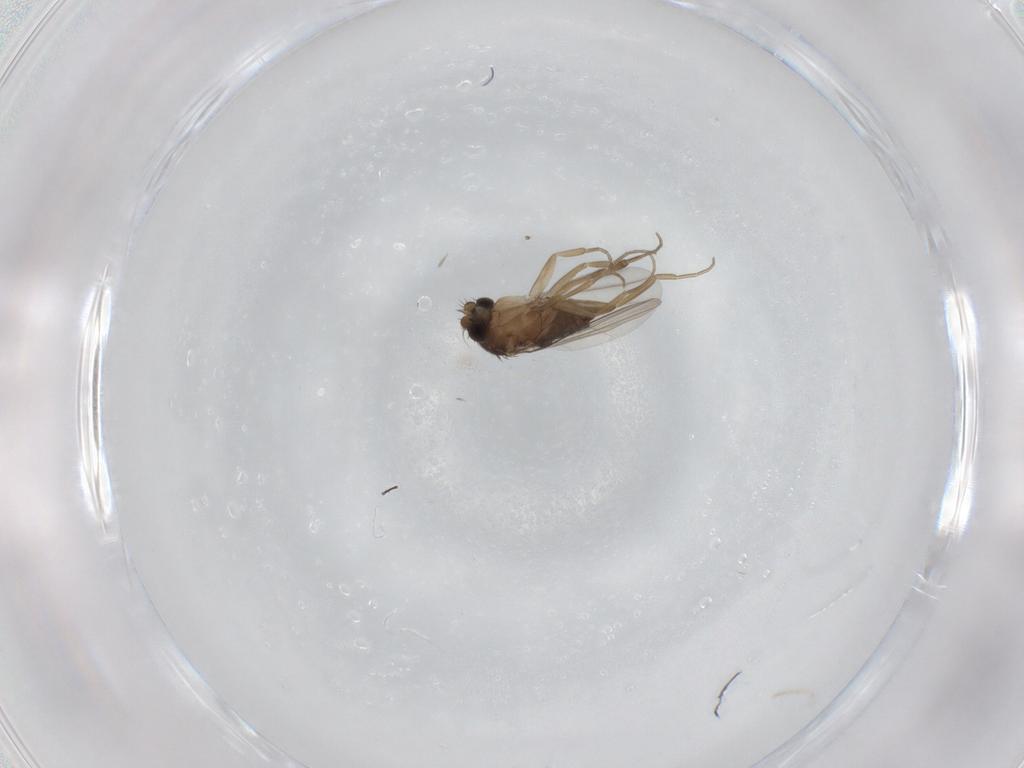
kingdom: Animalia
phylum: Arthropoda
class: Insecta
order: Diptera
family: Phoridae
